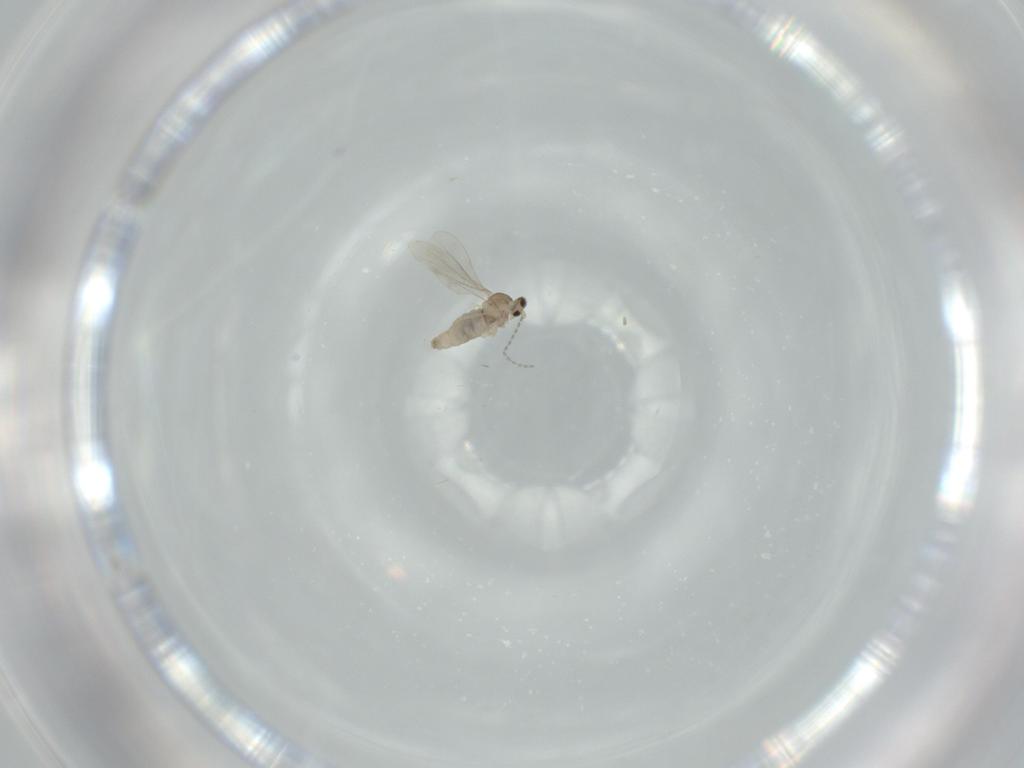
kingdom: Animalia
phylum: Arthropoda
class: Insecta
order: Diptera
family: Cecidomyiidae
